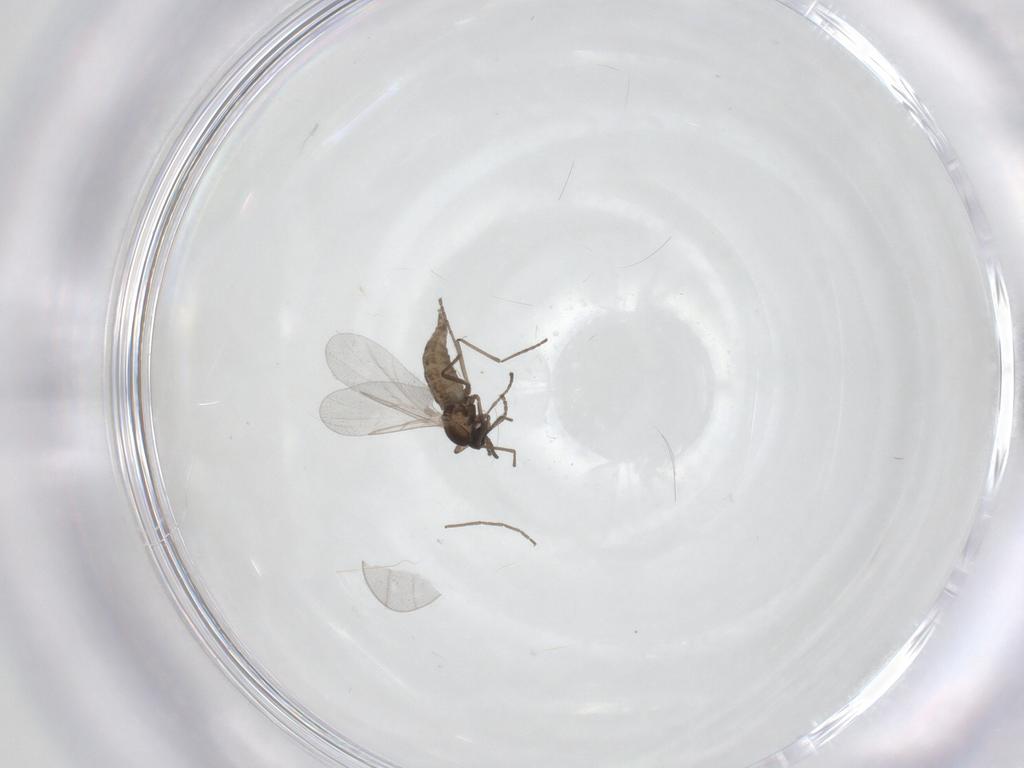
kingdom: Animalia
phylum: Arthropoda
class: Insecta
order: Diptera
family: Cecidomyiidae
